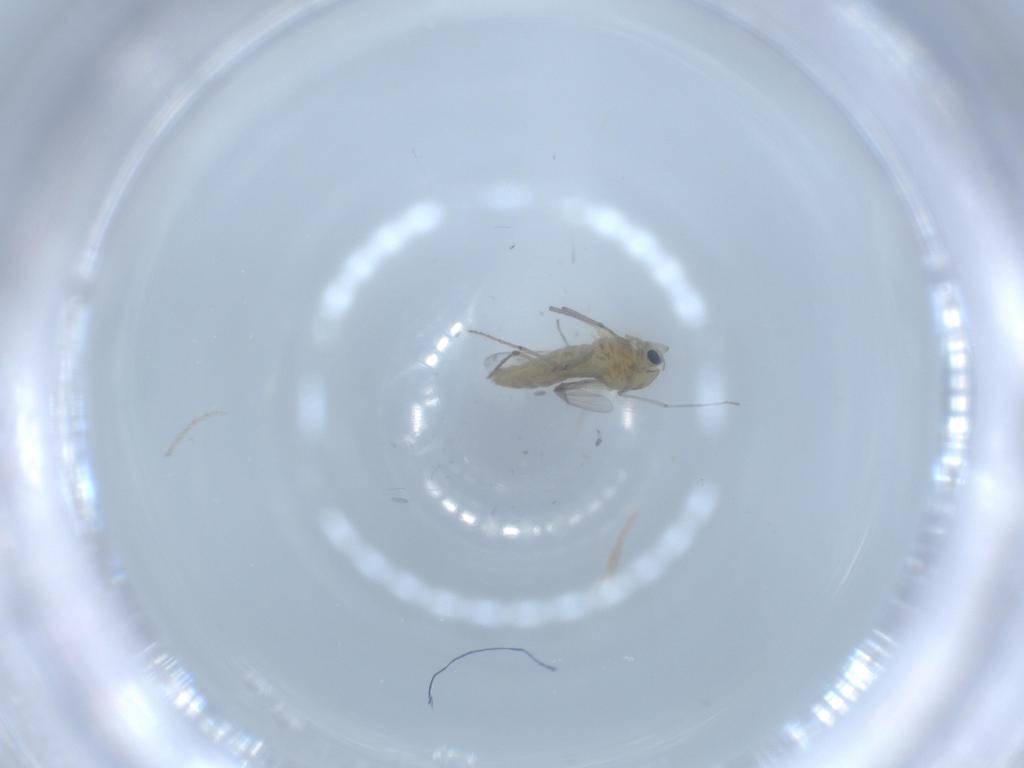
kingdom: Animalia
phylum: Arthropoda
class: Insecta
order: Diptera
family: Chironomidae
